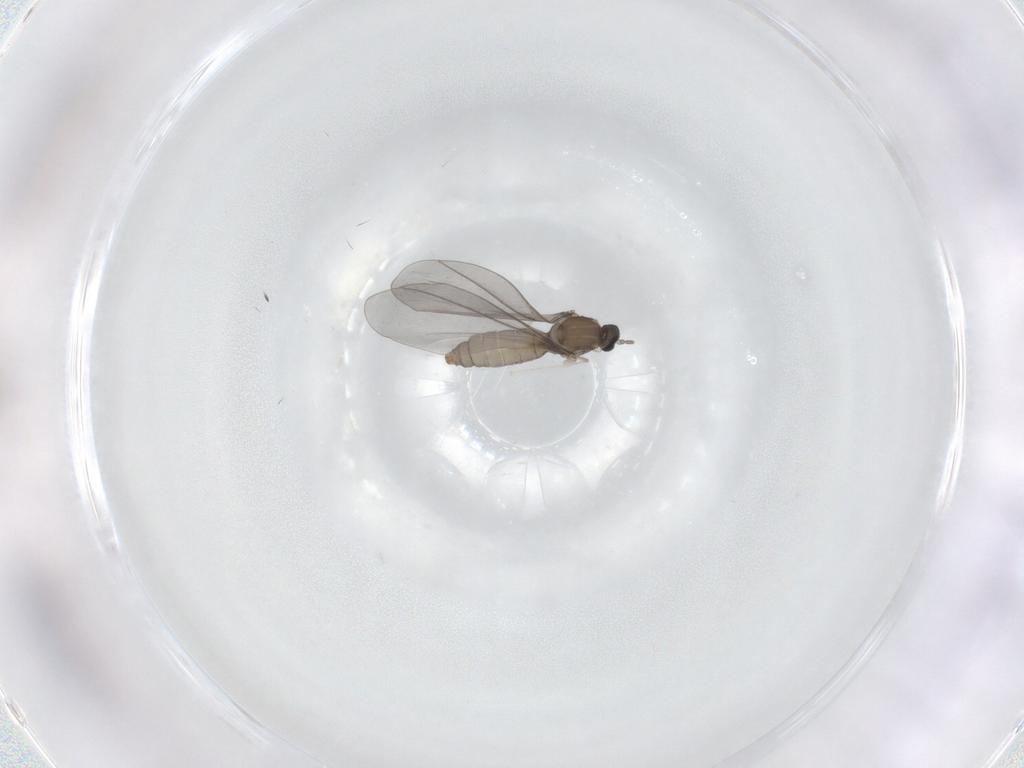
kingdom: Animalia
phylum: Arthropoda
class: Insecta
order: Diptera
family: Cecidomyiidae
